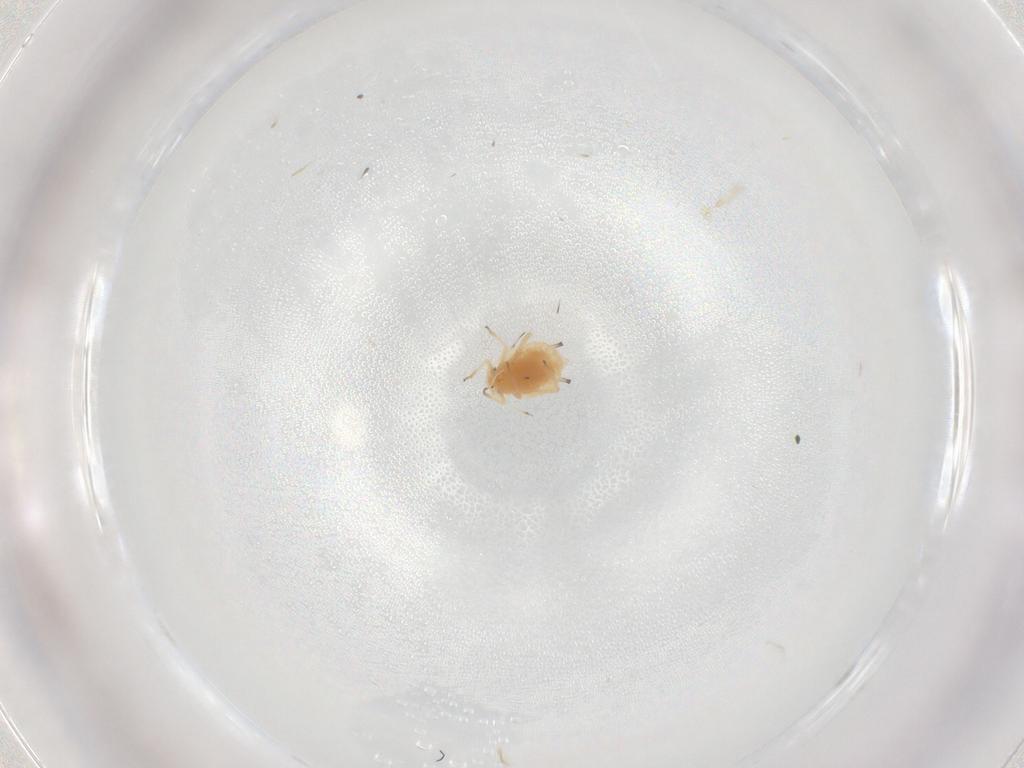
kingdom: Animalia
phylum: Arthropoda
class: Insecta
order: Hemiptera
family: Aphididae
